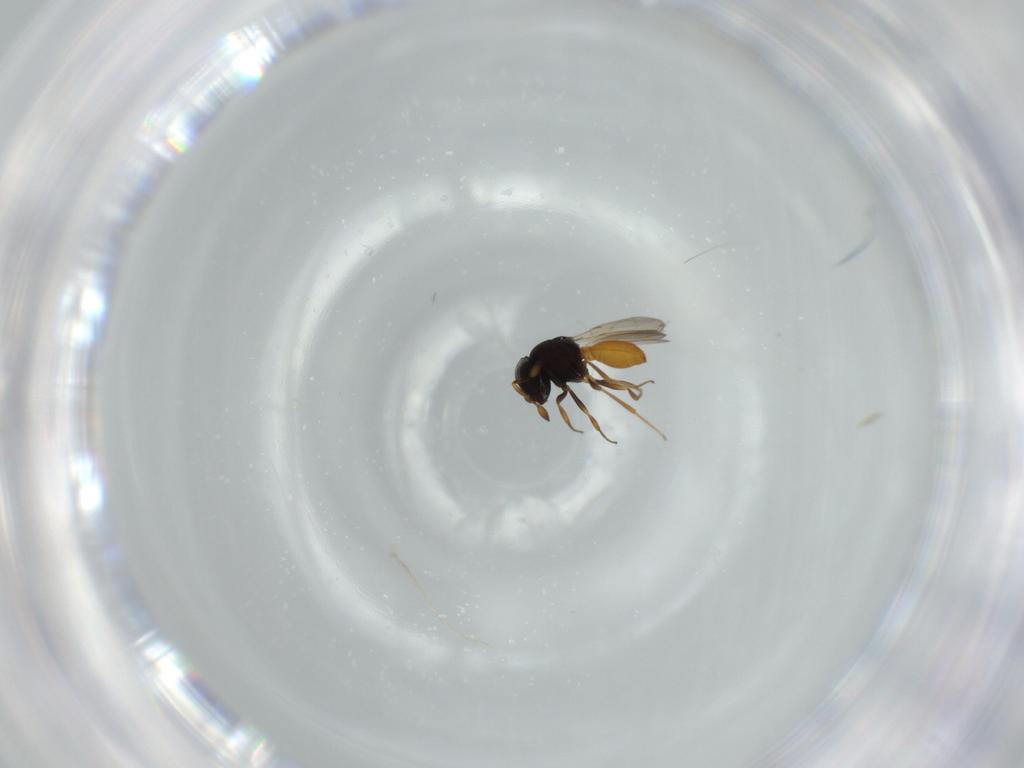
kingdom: Animalia
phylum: Arthropoda
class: Insecta
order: Hymenoptera
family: Scelionidae
